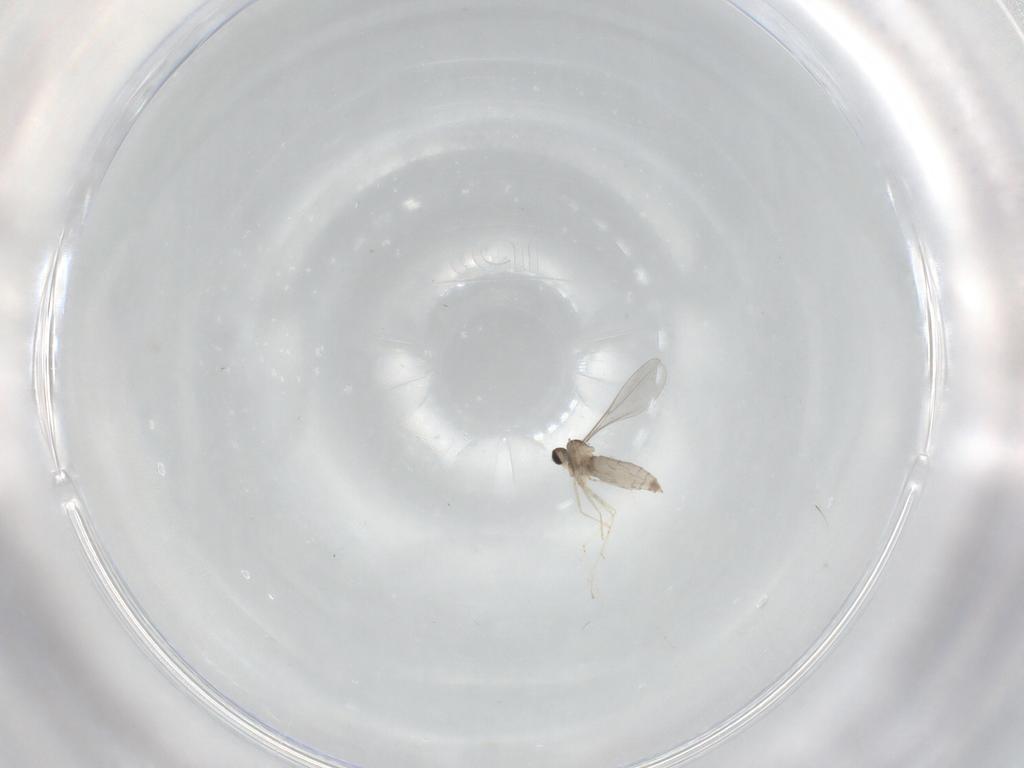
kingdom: Animalia
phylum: Arthropoda
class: Insecta
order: Diptera
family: Cecidomyiidae
